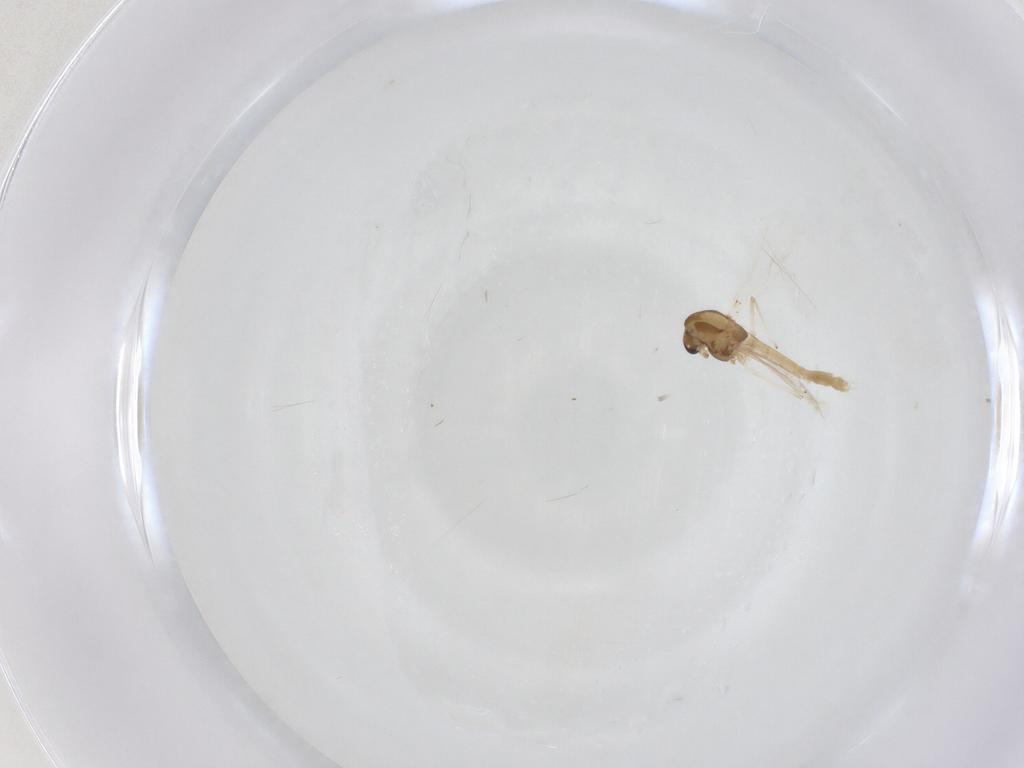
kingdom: Animalia
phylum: Arthropoda
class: Insecta
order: Diptera
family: Chironomidae
